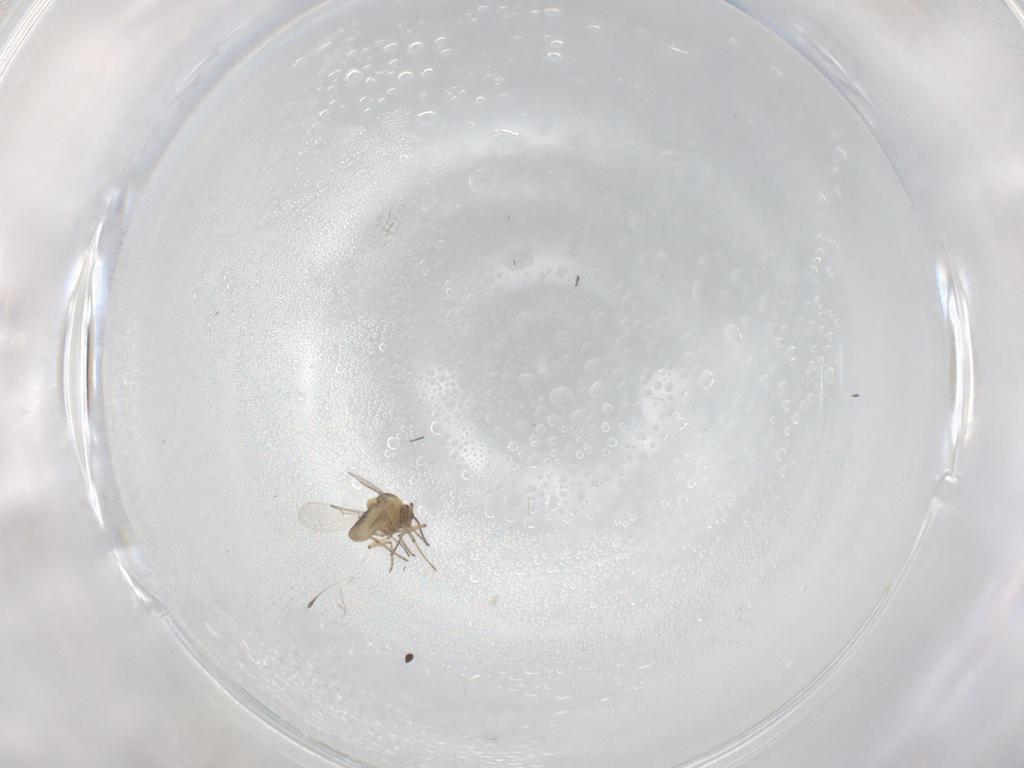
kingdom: Animalia
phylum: Arthropoda
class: Insecta
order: Diptera
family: Ceratopogonidae
